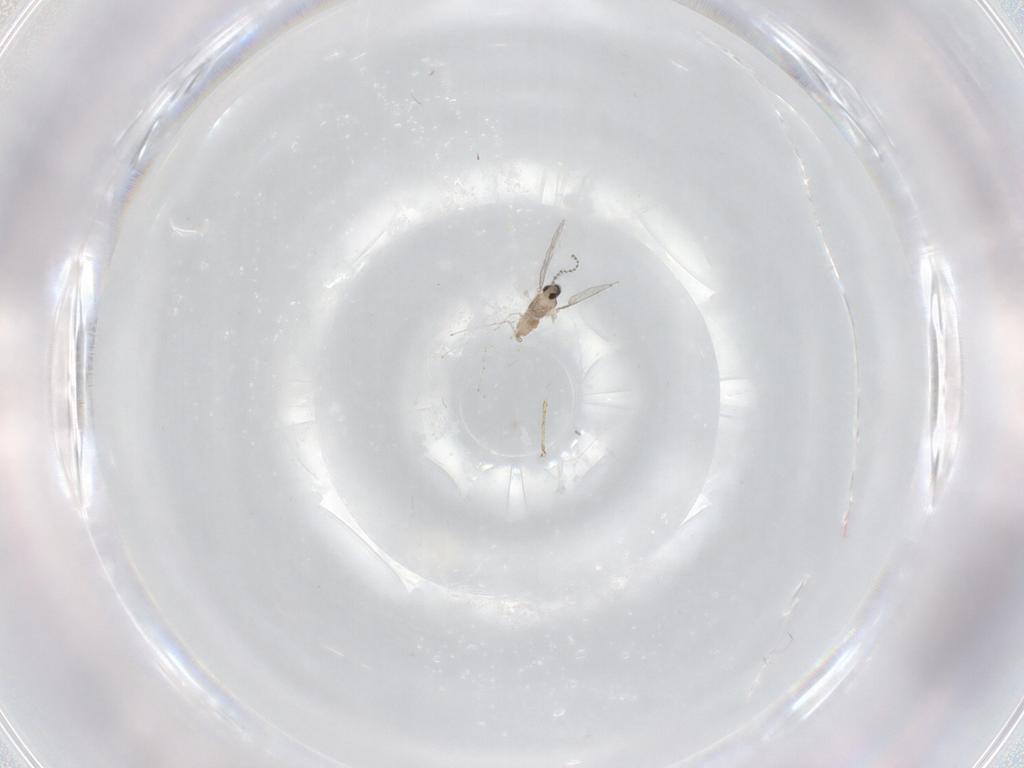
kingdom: Animalia
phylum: Arthropoda
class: Insecta
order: Diptera
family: Cecidomyiidae
